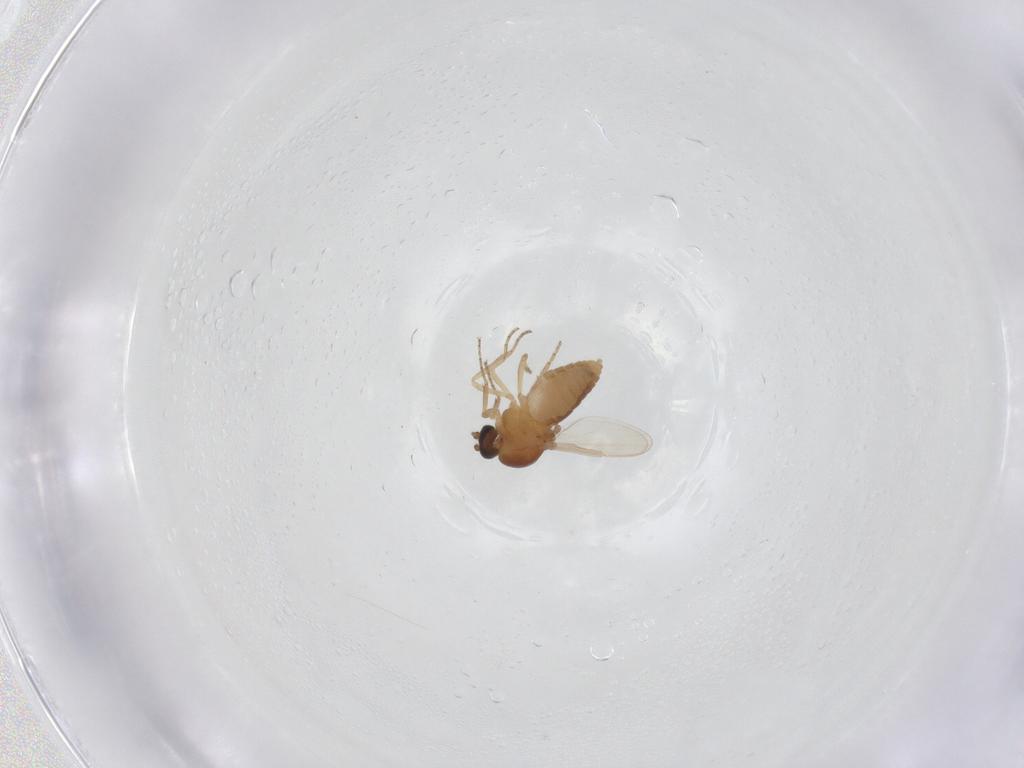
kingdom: Animalia
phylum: Arthropoda
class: Insecta
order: Diptera
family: Ceratopogonidae
